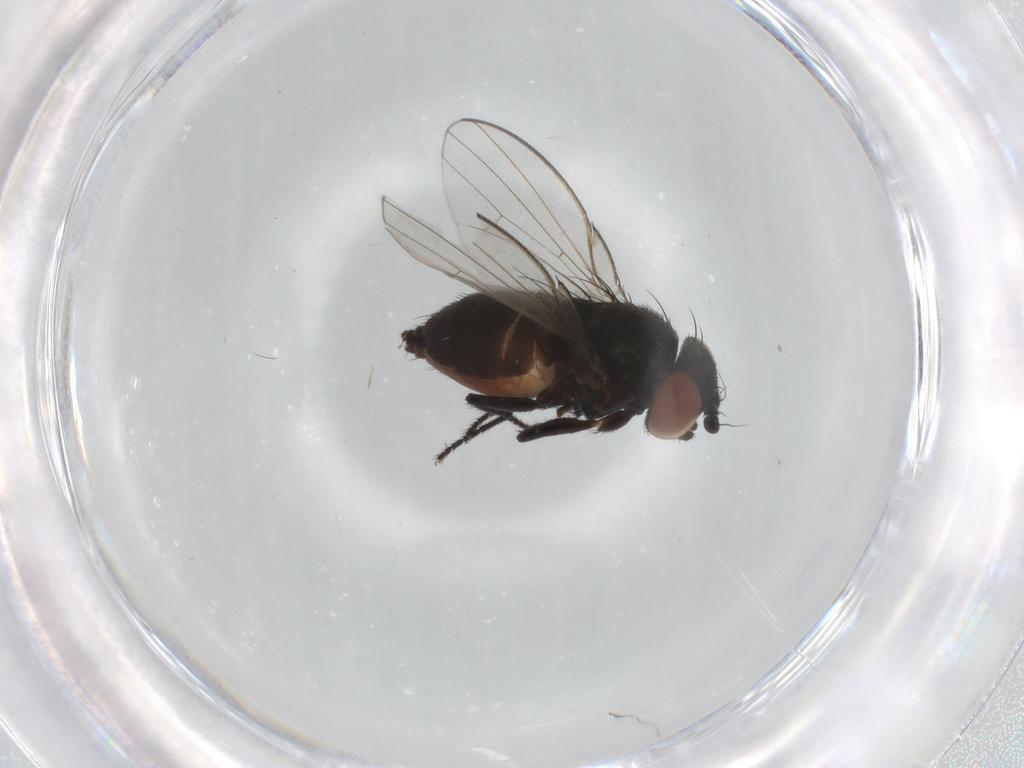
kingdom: Animalia
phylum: Arthropoda
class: Insecta
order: Diptera
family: Milichiidae
